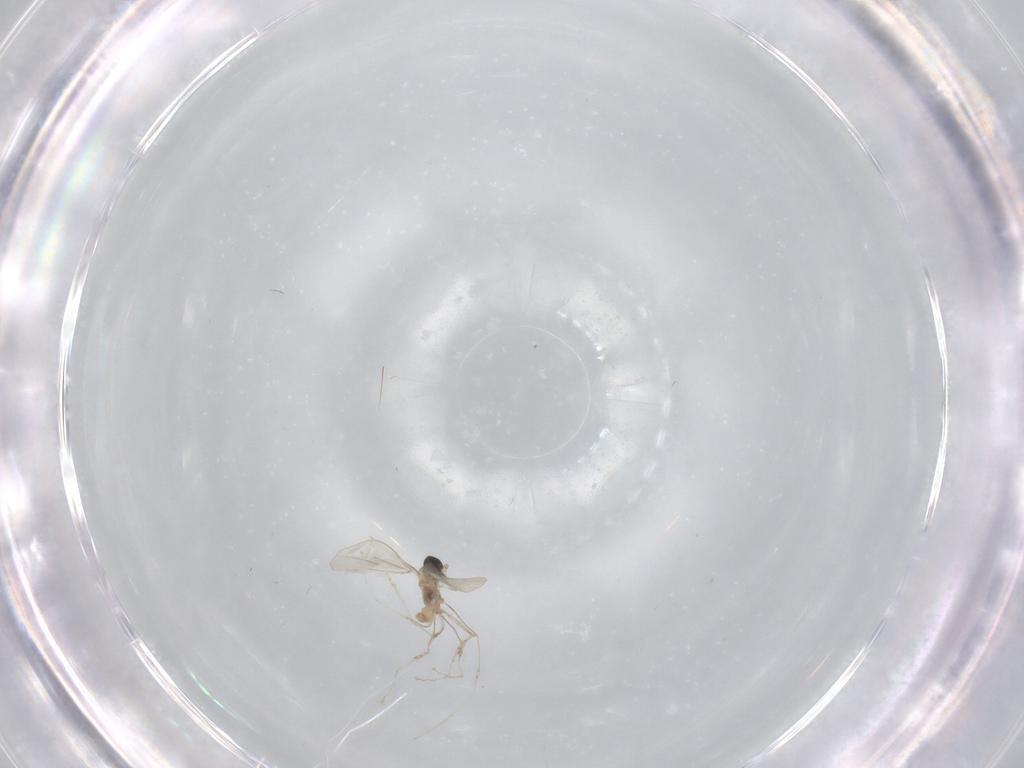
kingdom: Animalia
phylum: Arthropoda
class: Insecta
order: Diptera
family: Cecidomyiidae
